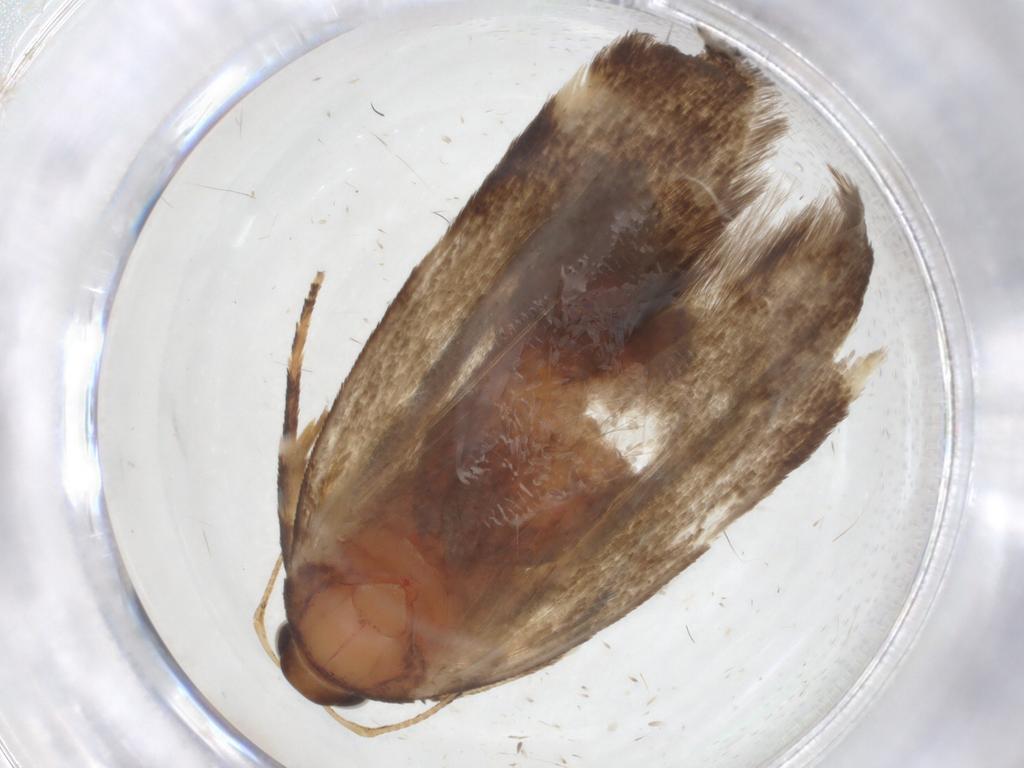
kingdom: Animalia
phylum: Arthropoda
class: Insecta
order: Lepidoptera
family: Gelechiidae
